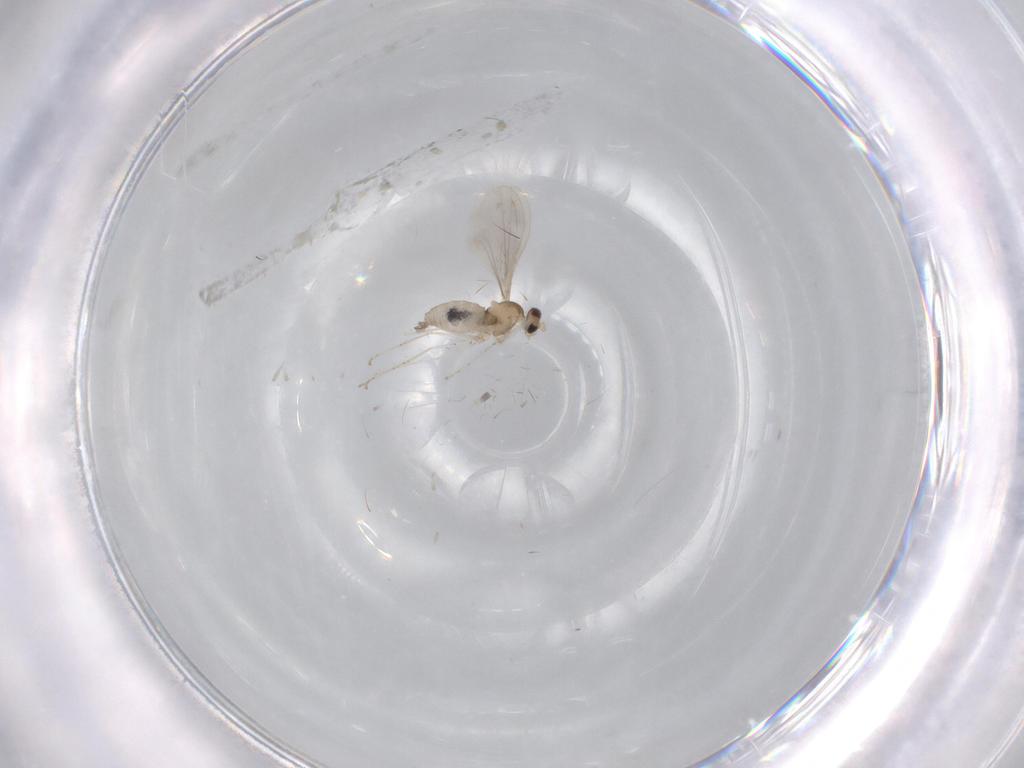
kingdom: Animalia
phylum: Arthropoda
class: Insecta
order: Diptera
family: Cecidomyiidae
